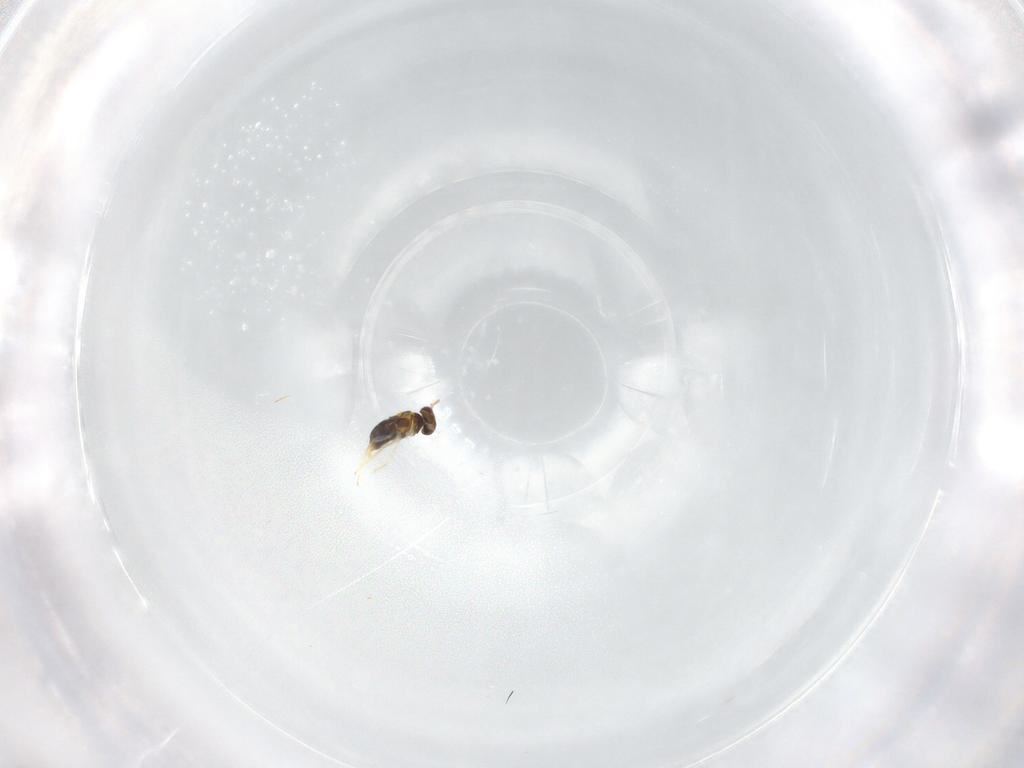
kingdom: Animalia
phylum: Arthropoda
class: Insecta
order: Hymenoptera
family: Aphelinidae
